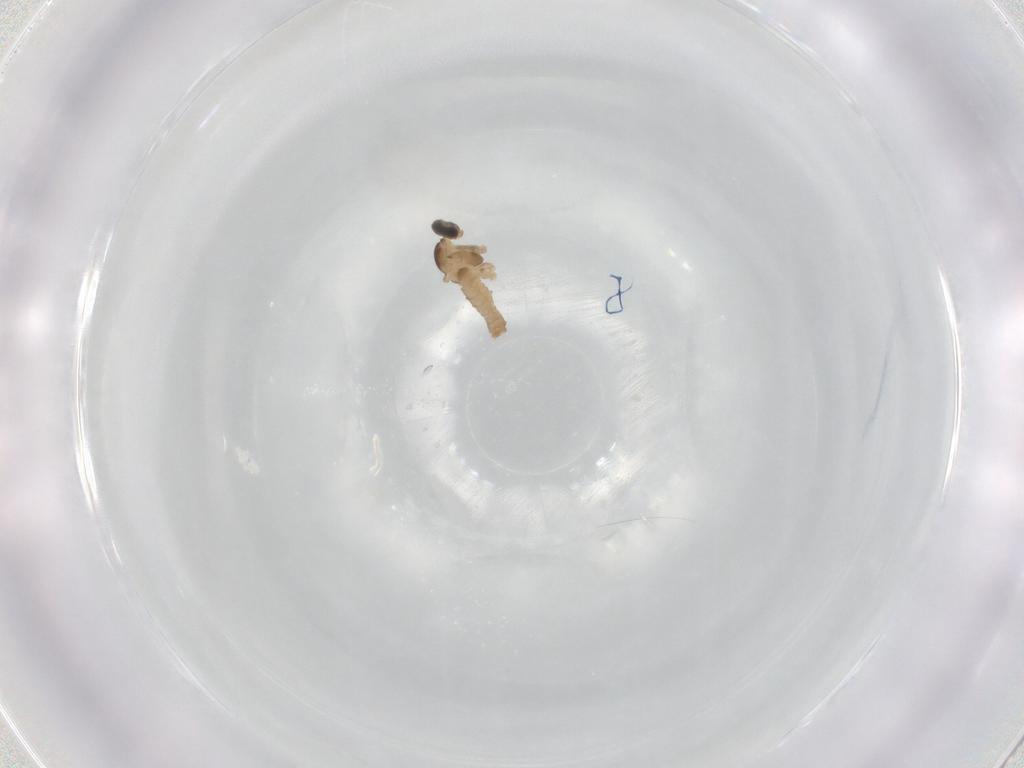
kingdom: Animalia
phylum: Arthropoda
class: Insecta
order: Diptera
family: Cecidomyiidae
